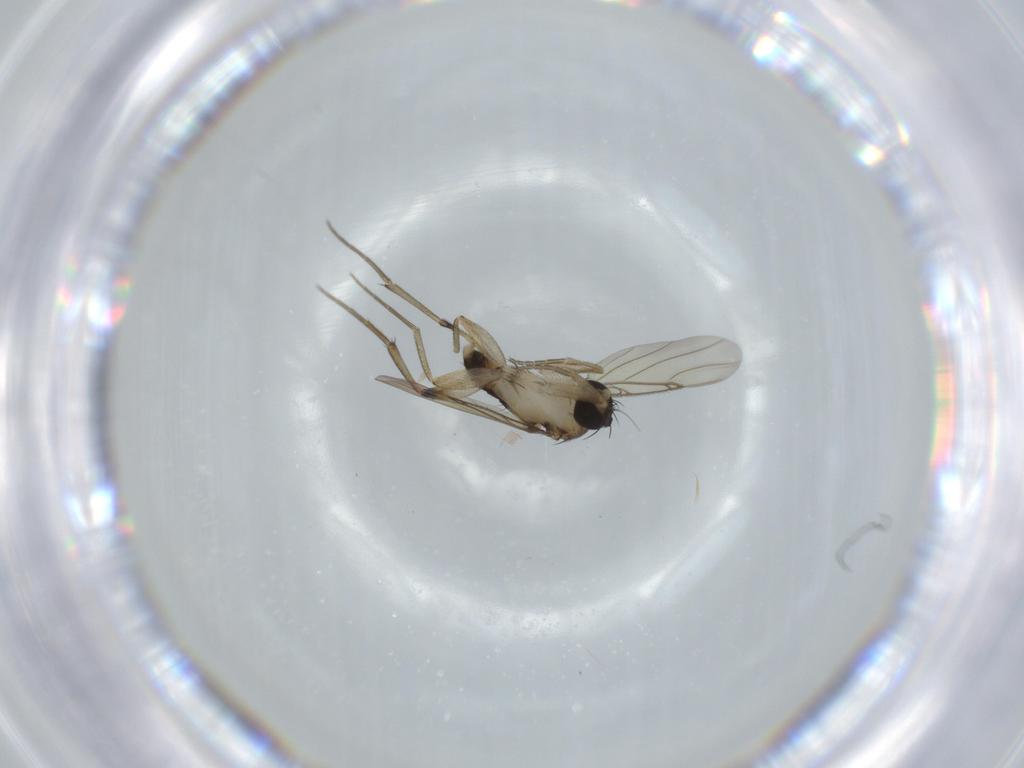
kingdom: Animalia
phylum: Arthropoda
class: Insecta
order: Diptera
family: Phoridae
